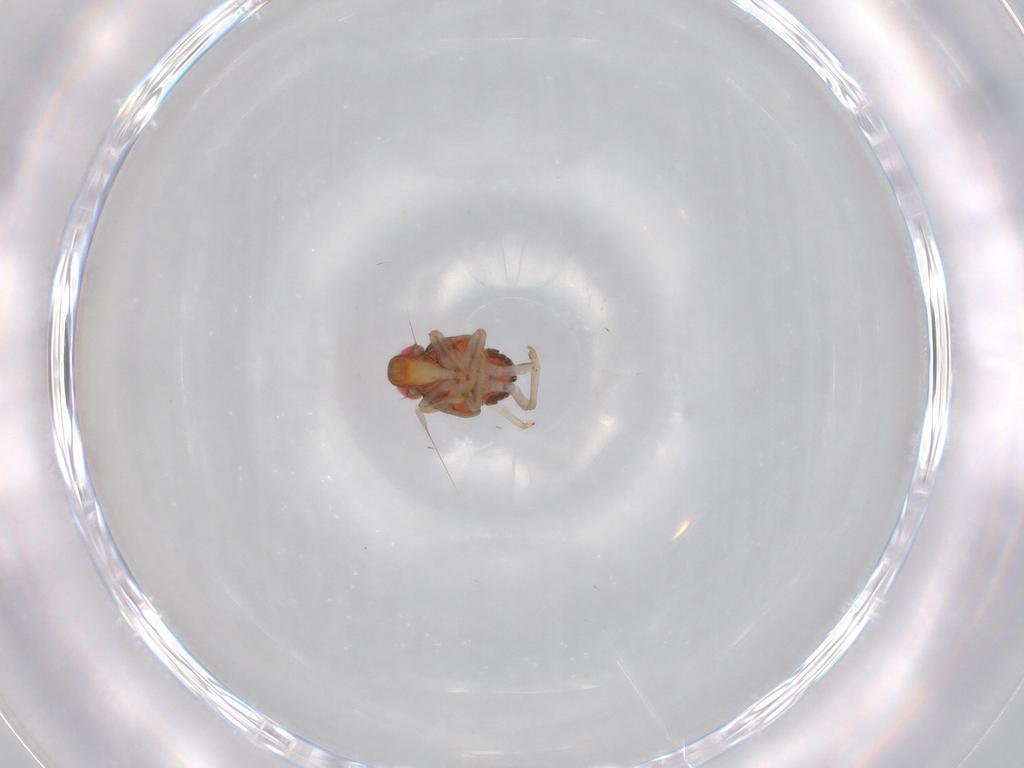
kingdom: Animalia
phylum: Arthropoda
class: Insecta
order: Hemiptera
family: Issidae
